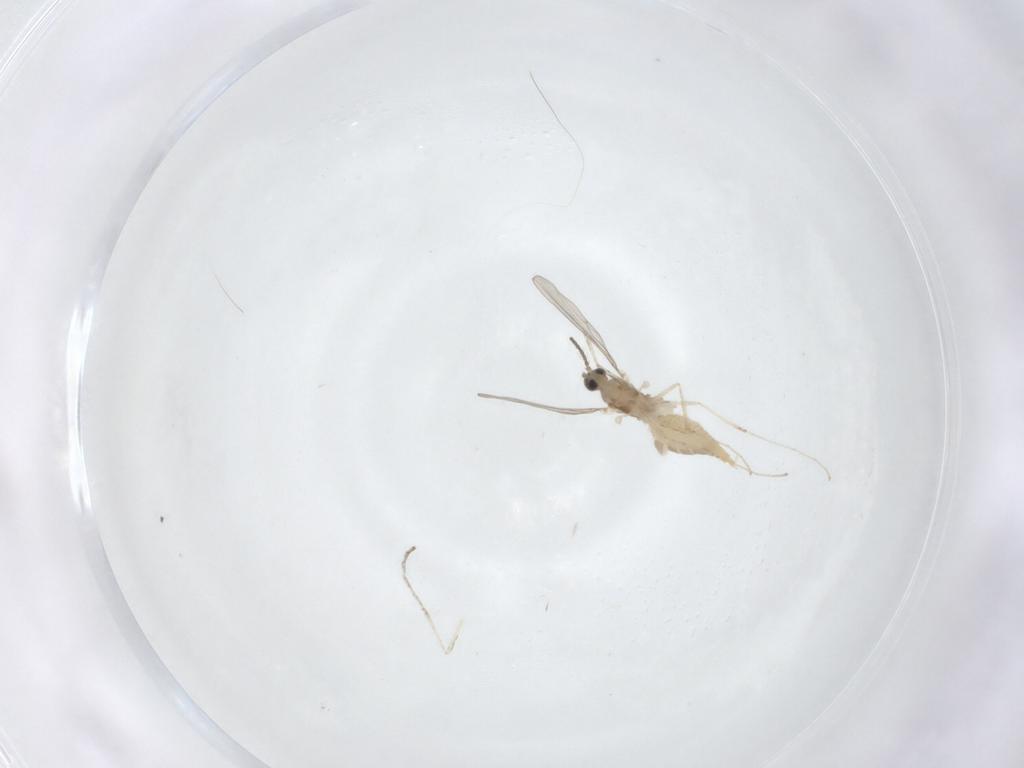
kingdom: Animalia
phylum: Arthropoda
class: Insecta
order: Diptera
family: Cecidomyiidae
